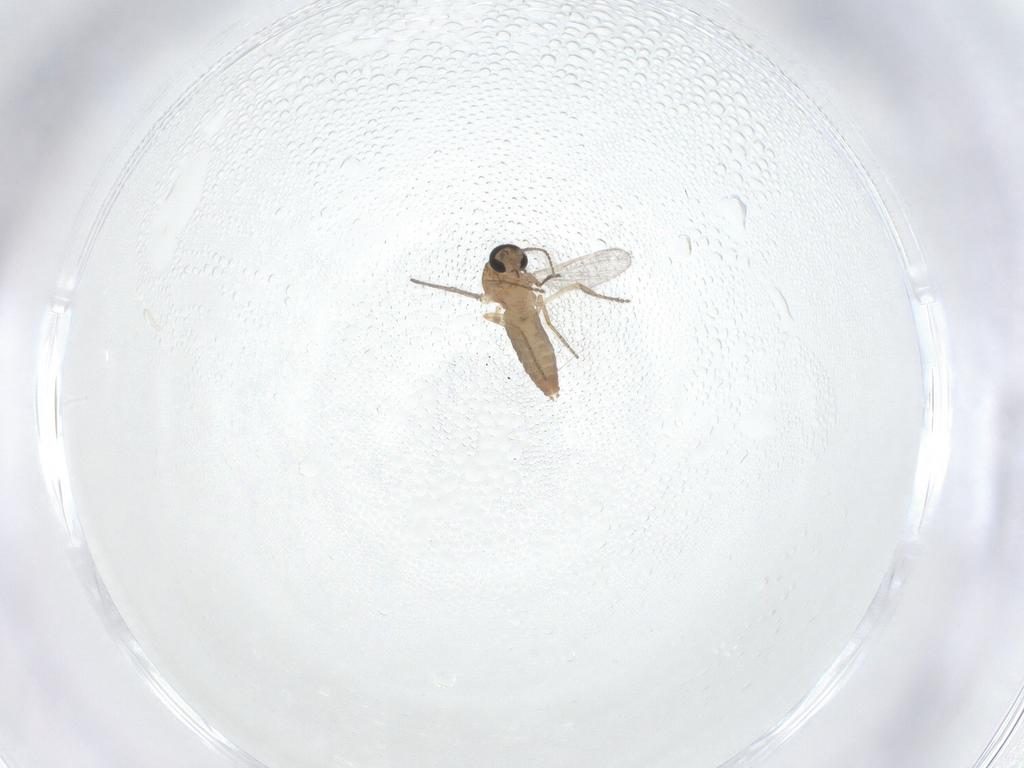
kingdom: Animalia
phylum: Arthropoda
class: Insecta
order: Diptera
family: Ceratopogonidae
